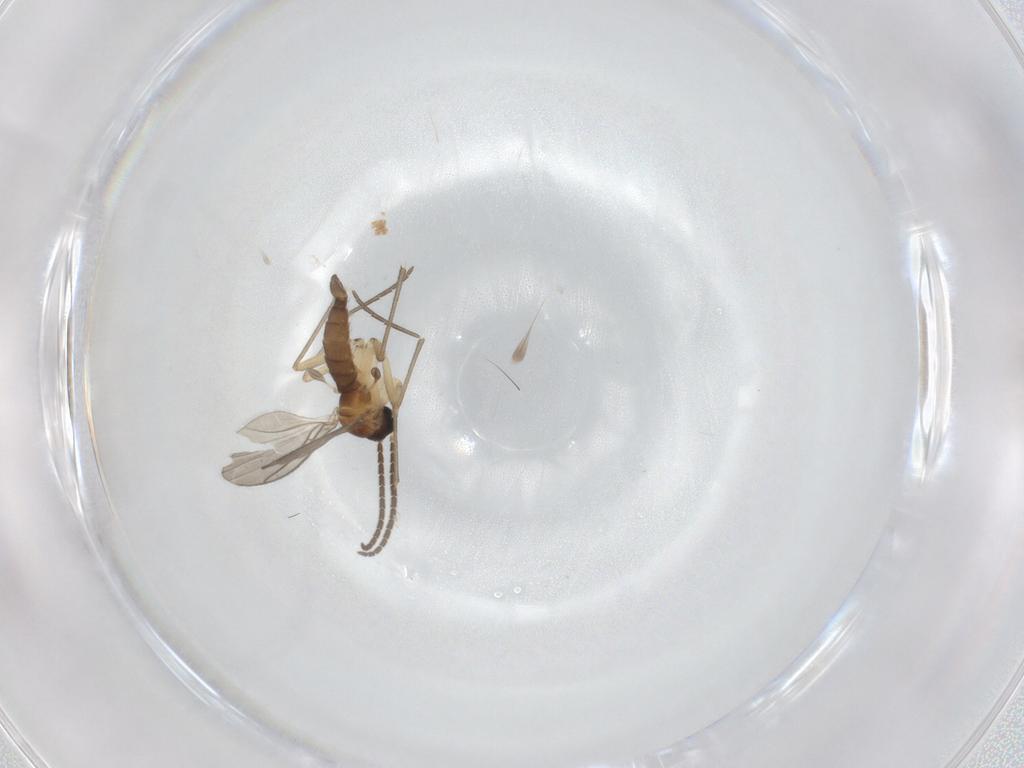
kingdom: Animalia
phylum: Arthropoda
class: Insecta
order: Diptera
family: Sciaridae
